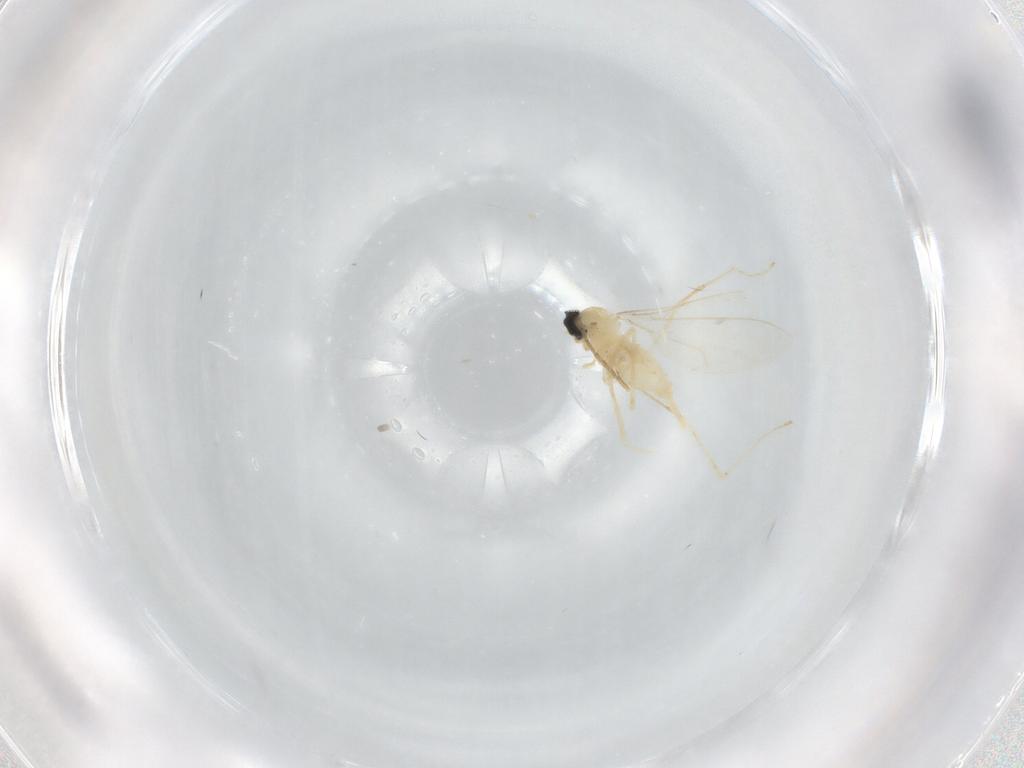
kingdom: Animalia
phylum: Arthropoda
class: Insecta
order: Diptera
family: Cecidomyiidae
